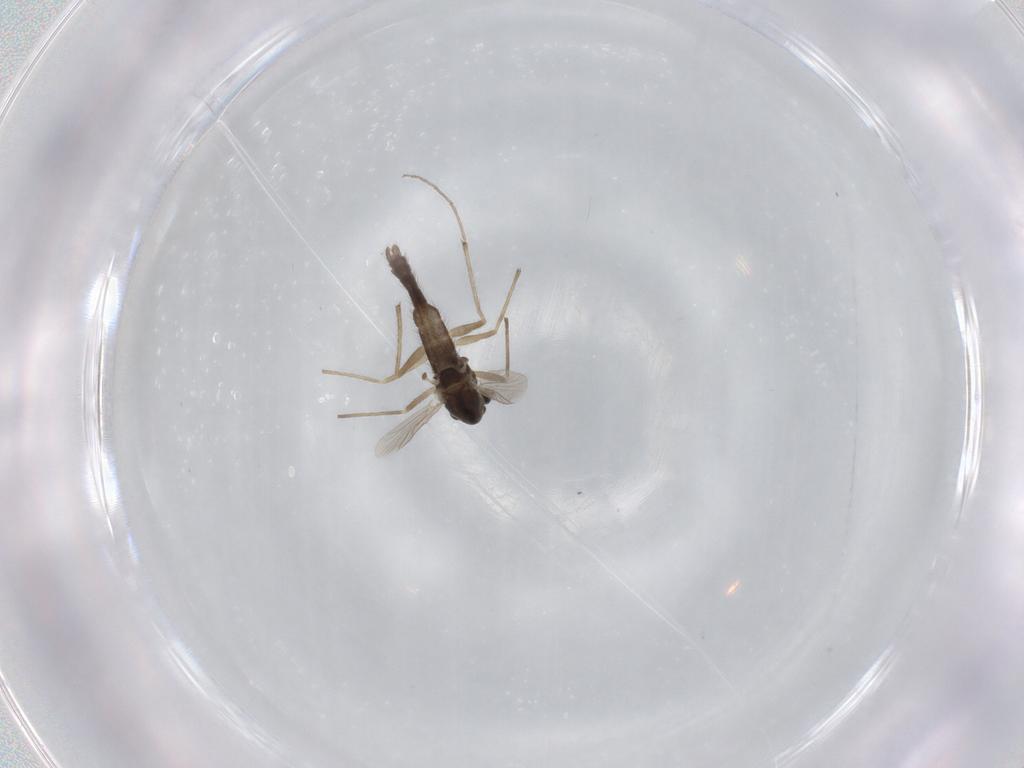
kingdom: Animalia
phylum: Arthropoda
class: Insecta
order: Diptera
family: Chironomidae
